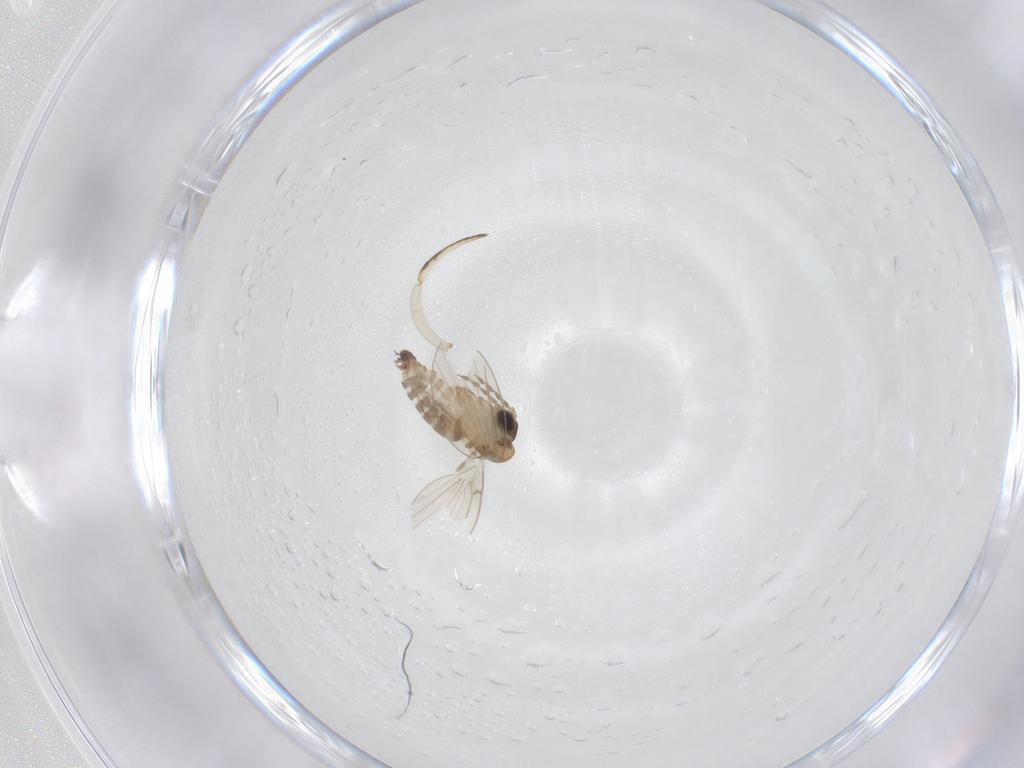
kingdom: Animalia
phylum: Arthropoda
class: Insecta
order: Diptera
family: Psychodidae
